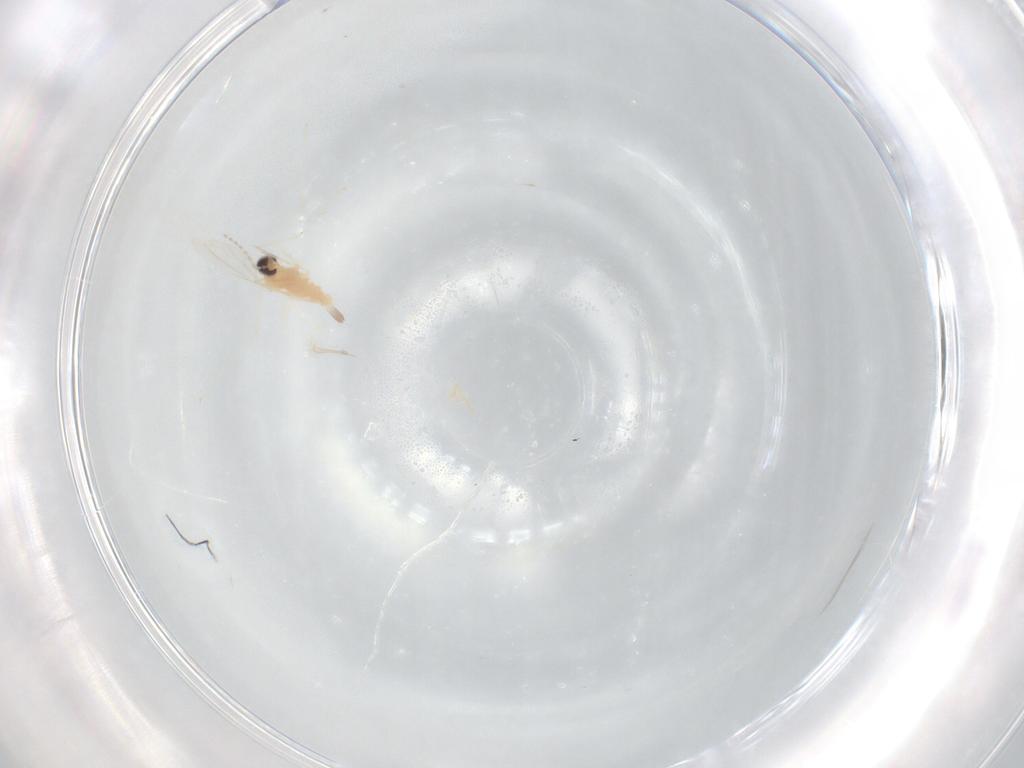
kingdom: Animalia
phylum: Arthropoda
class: Insecta
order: Diptera
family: Cecidomyiidae
